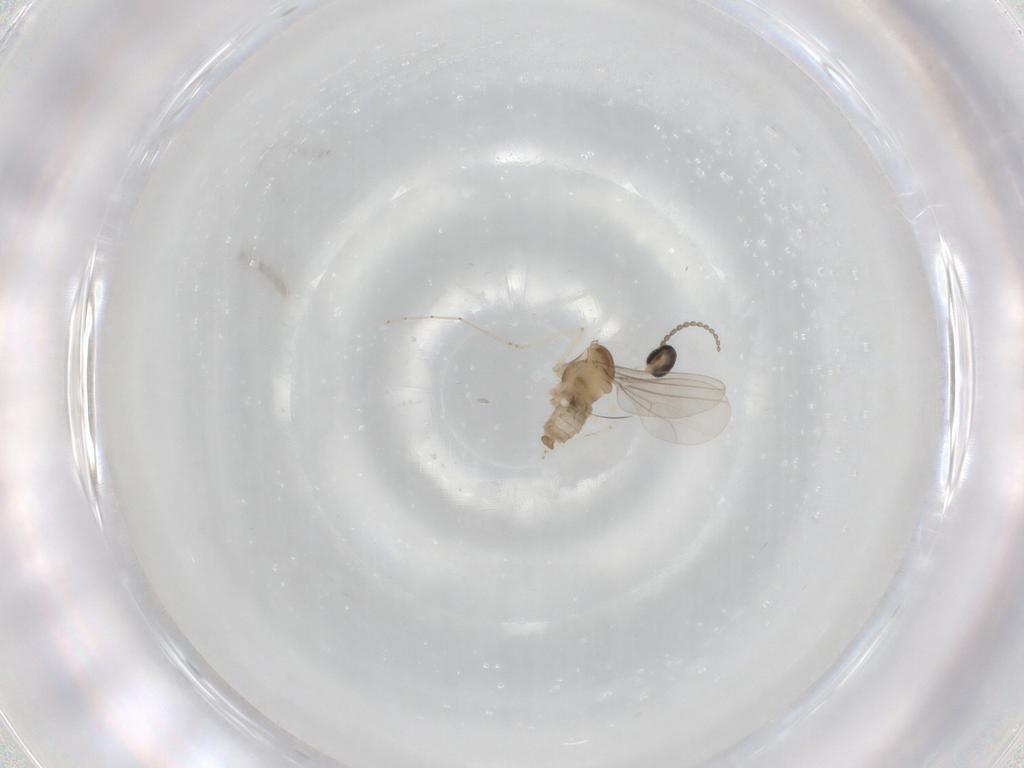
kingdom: Animalia
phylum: Arthropoda
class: Insecta
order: Diptera
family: Cecidomyiidae
